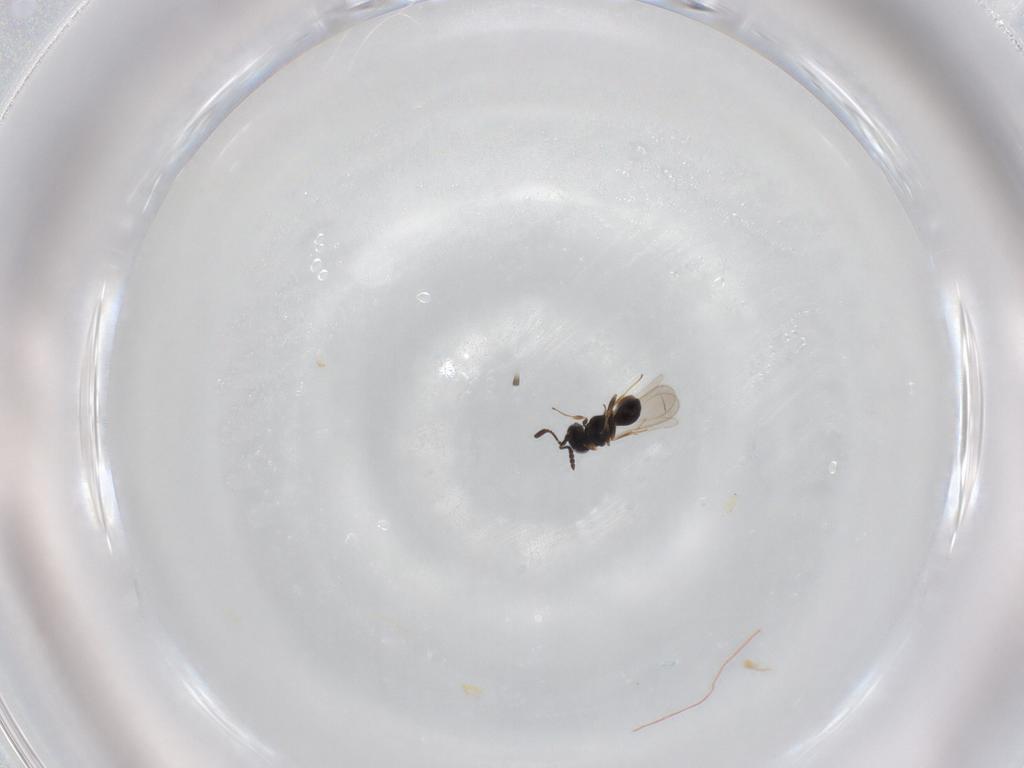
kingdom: Animalia
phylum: Arthropoda
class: Insecta
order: Hymenoptera
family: Scelionidae
